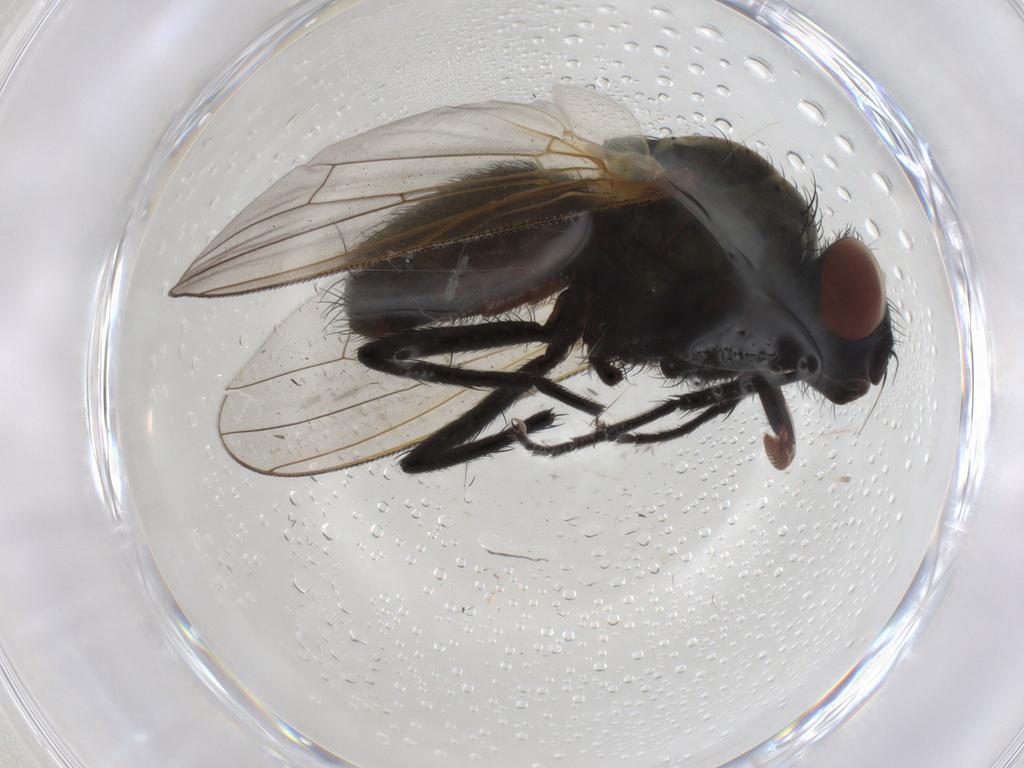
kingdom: Animalia
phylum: Arthropoda
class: Insecta
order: Diptera
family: Anthomyiidae
